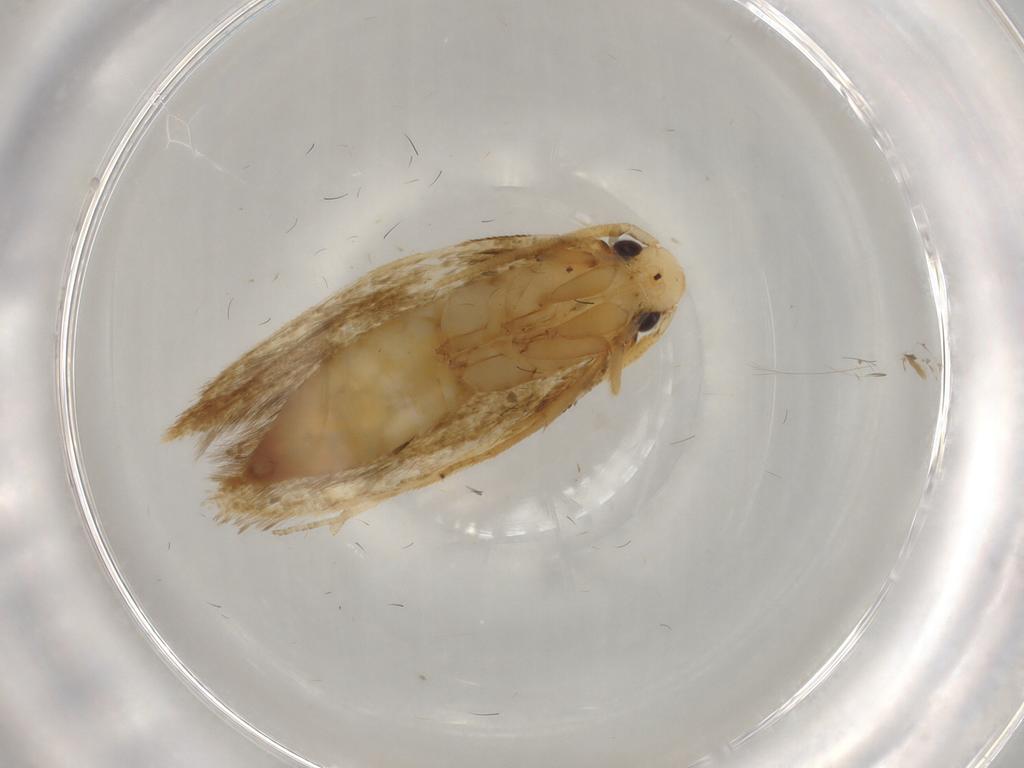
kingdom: Animalia
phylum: Arthropoda
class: Insecta
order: Lepidoptera
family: Tineidae
